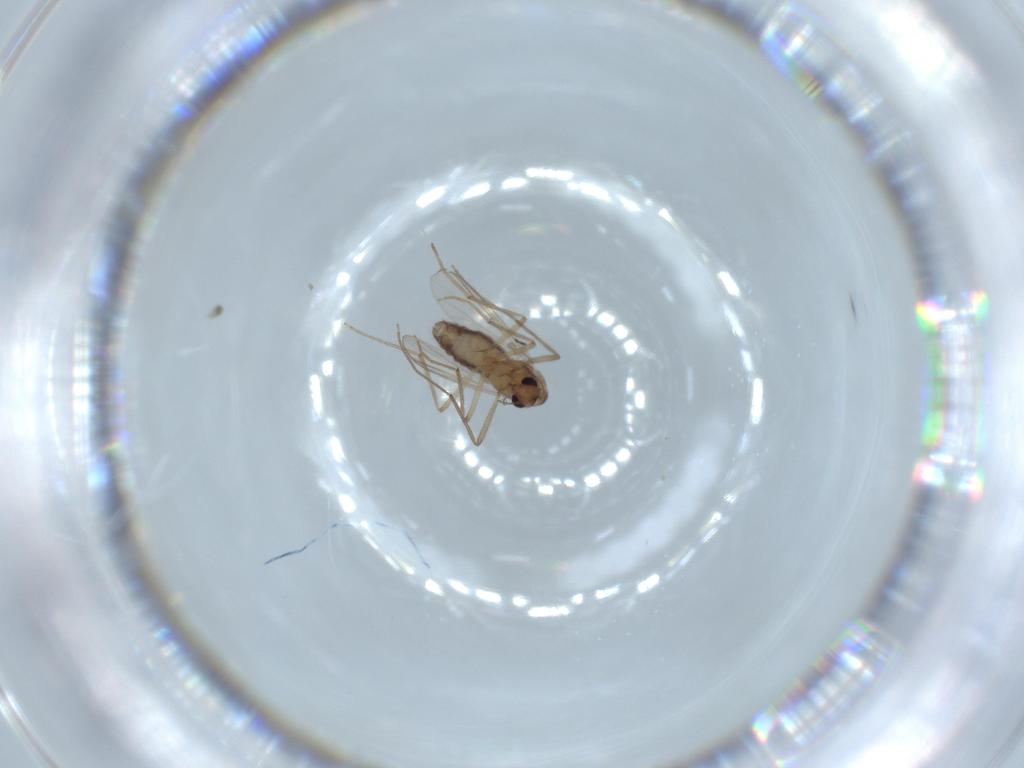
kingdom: Animalia
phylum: Arthropoda
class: Insecta
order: Diptera
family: Chironomidae
